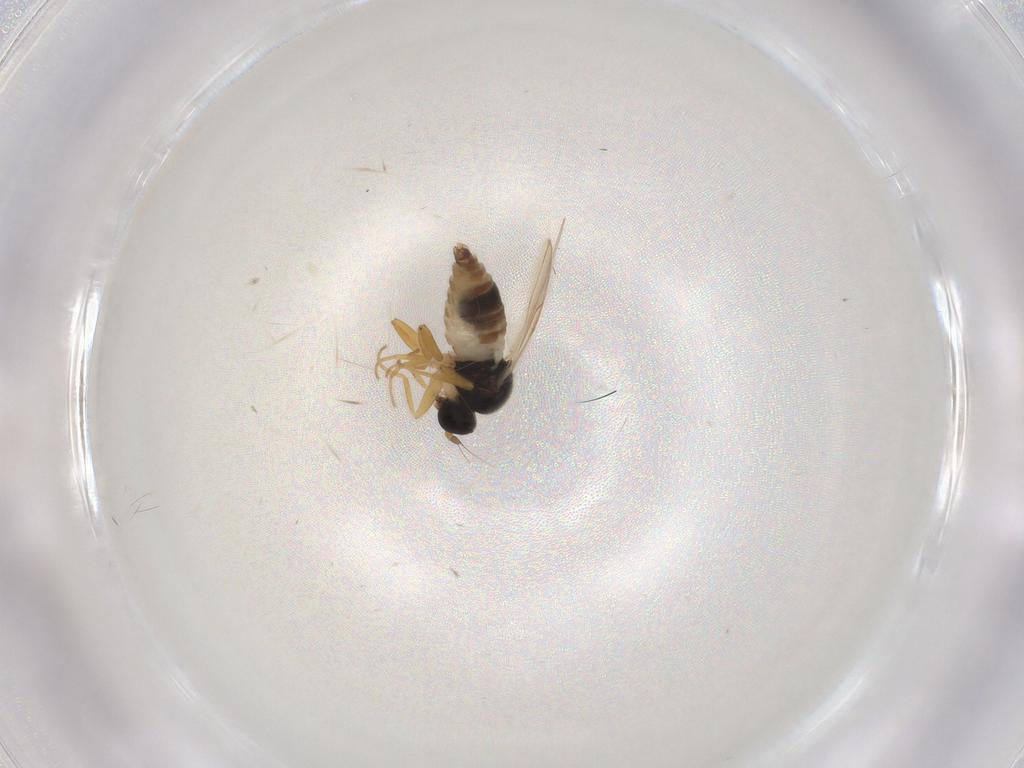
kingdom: Animalia
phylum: Arthropoda
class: Insecta
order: Diptera
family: Hybotidae
